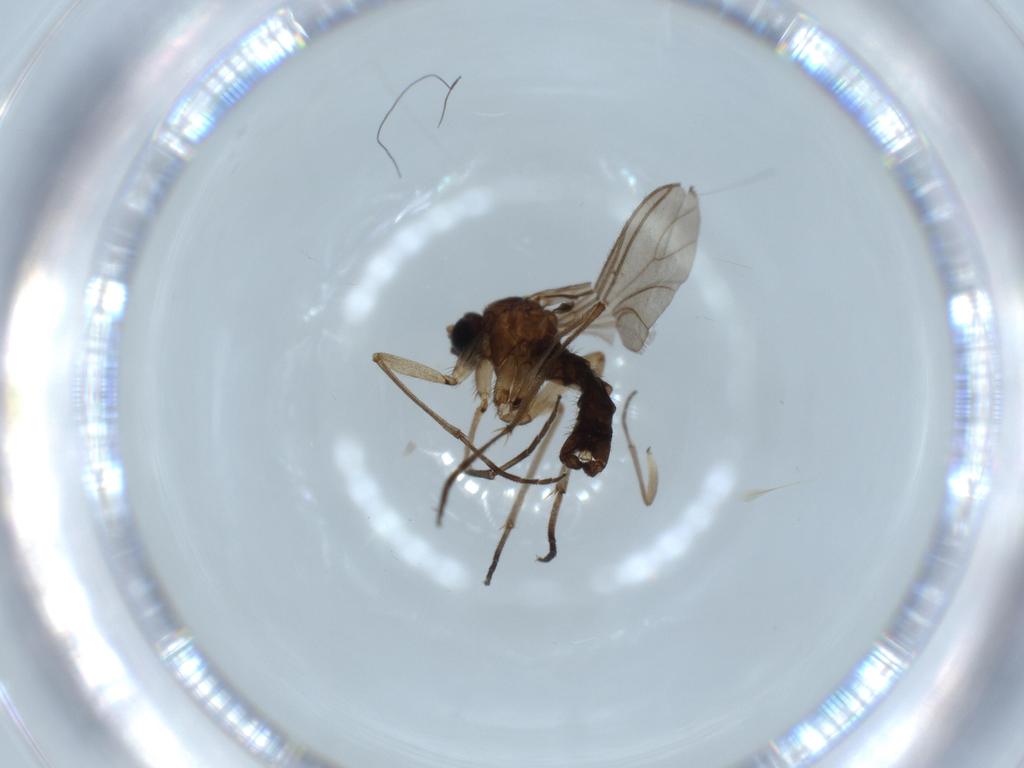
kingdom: Animalia
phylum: Arthropoda
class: Insecta
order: Diptera
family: Sciaridae
